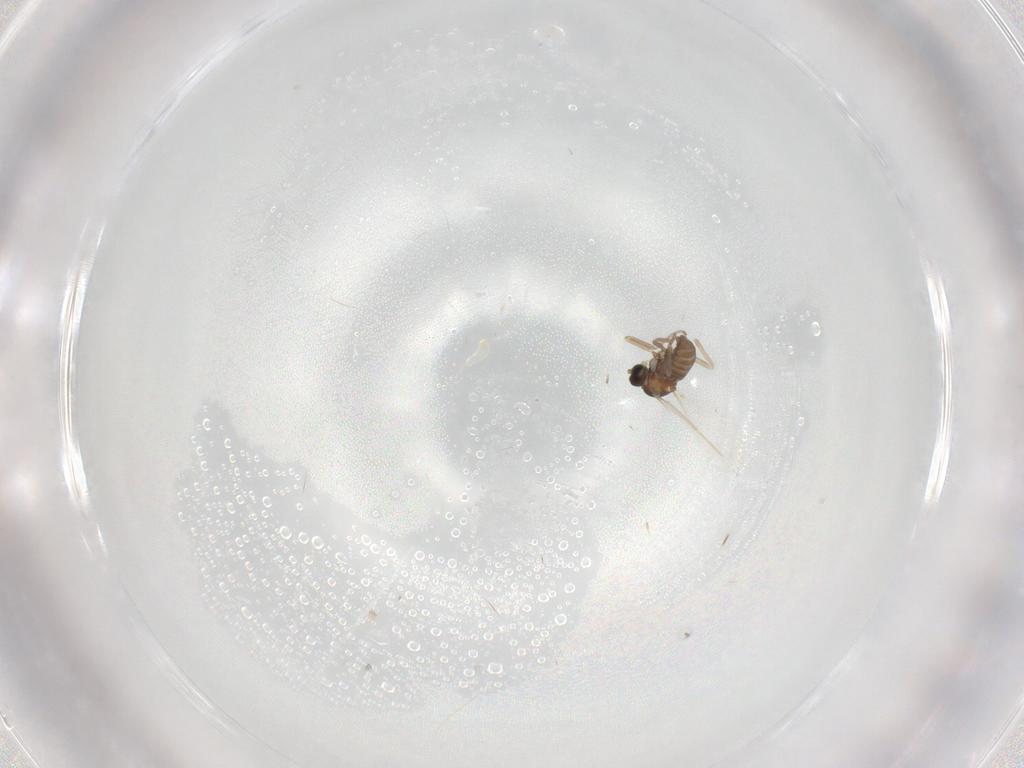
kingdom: Animalia
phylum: Arthropoda
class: Insecta
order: Diptera
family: Cecidomyiidae
